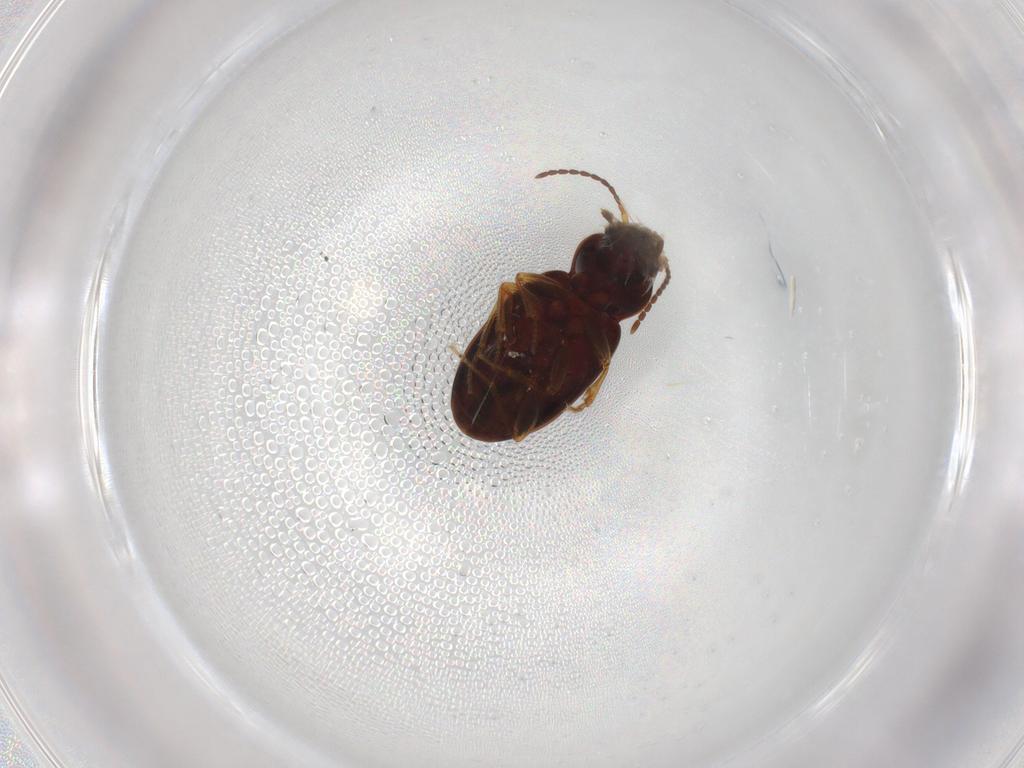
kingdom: Animalia
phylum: Arthropoda
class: Insecta
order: Coleoptera
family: Carabidae
